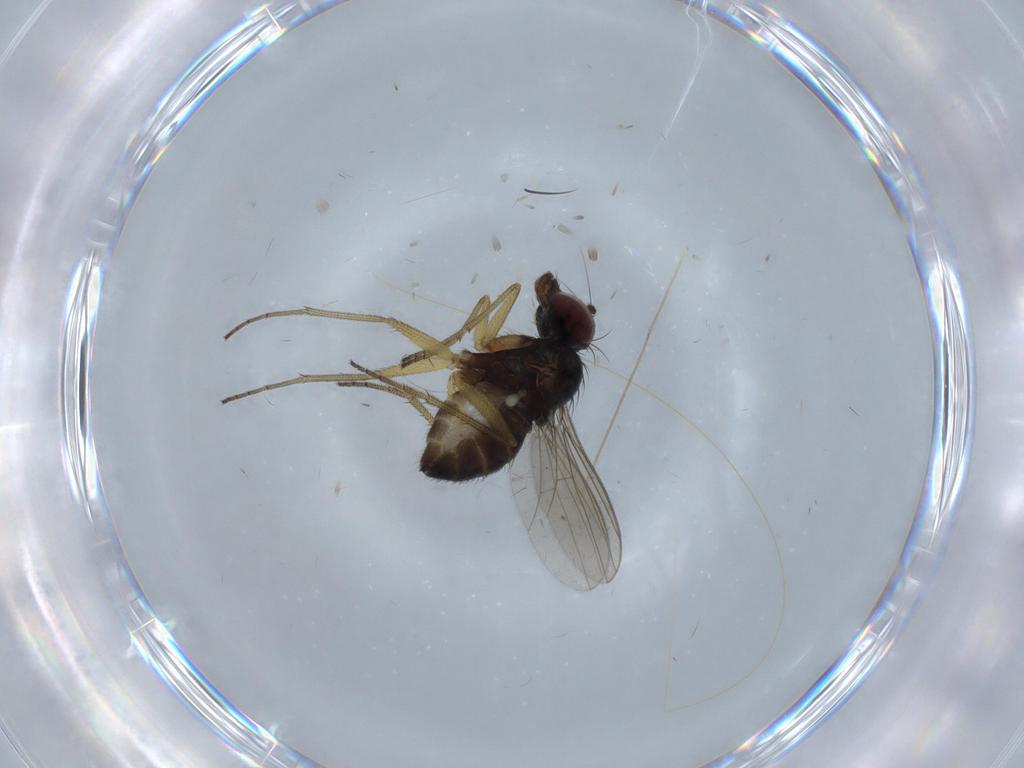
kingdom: Animalia
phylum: Arthropoda
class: Insecta
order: Diptera
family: Dolichopodidae
